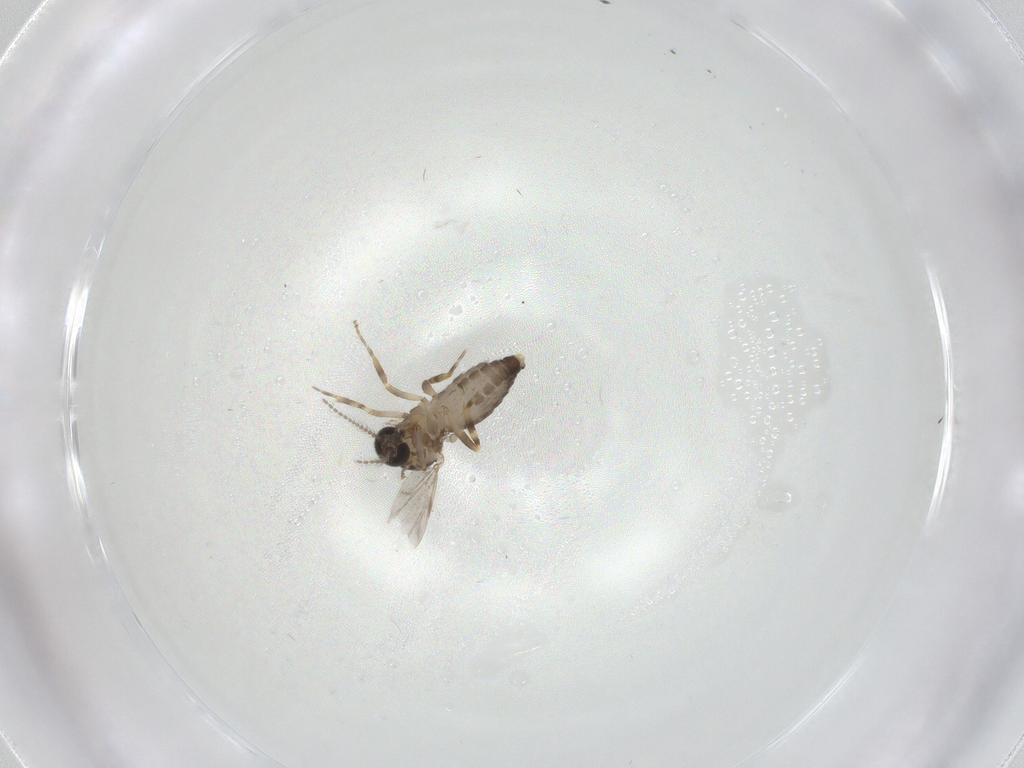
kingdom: Animalia
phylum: Arthropoda
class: Insecta
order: Diptera
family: Ceratopogonidae
